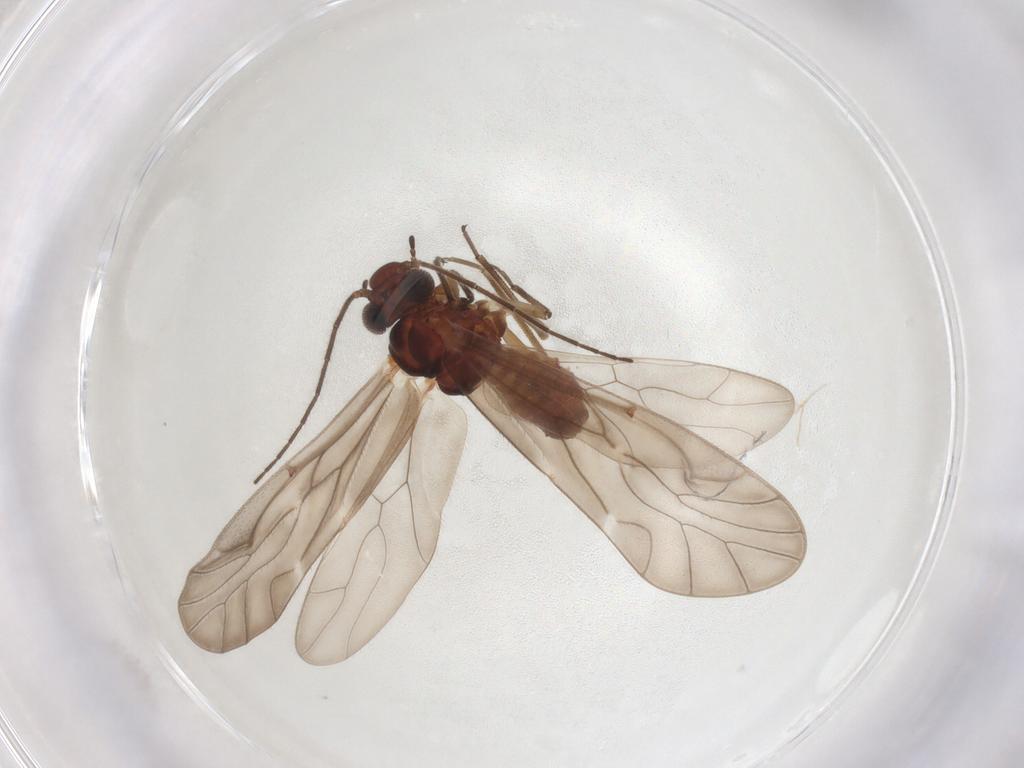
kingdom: Animalia
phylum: Arthropoda
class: Insecta
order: Psocodea
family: Caeciliusidae
